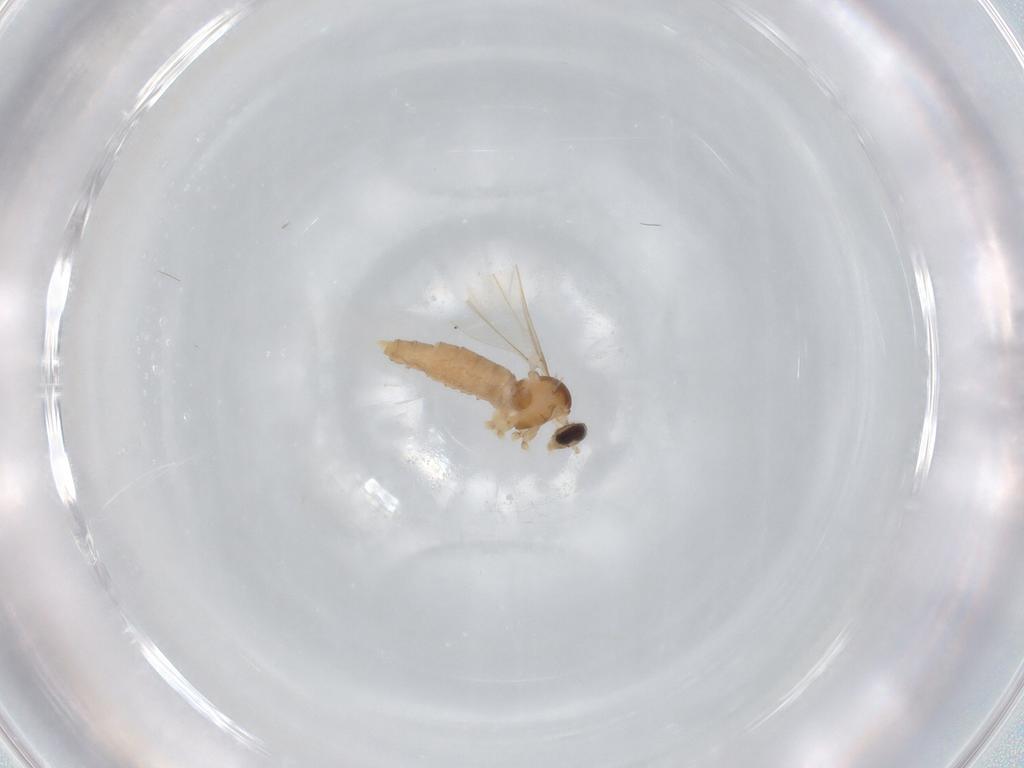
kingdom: Animalia
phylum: Arthropoda
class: Insecta
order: Diptera
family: Cecidomyiidae
